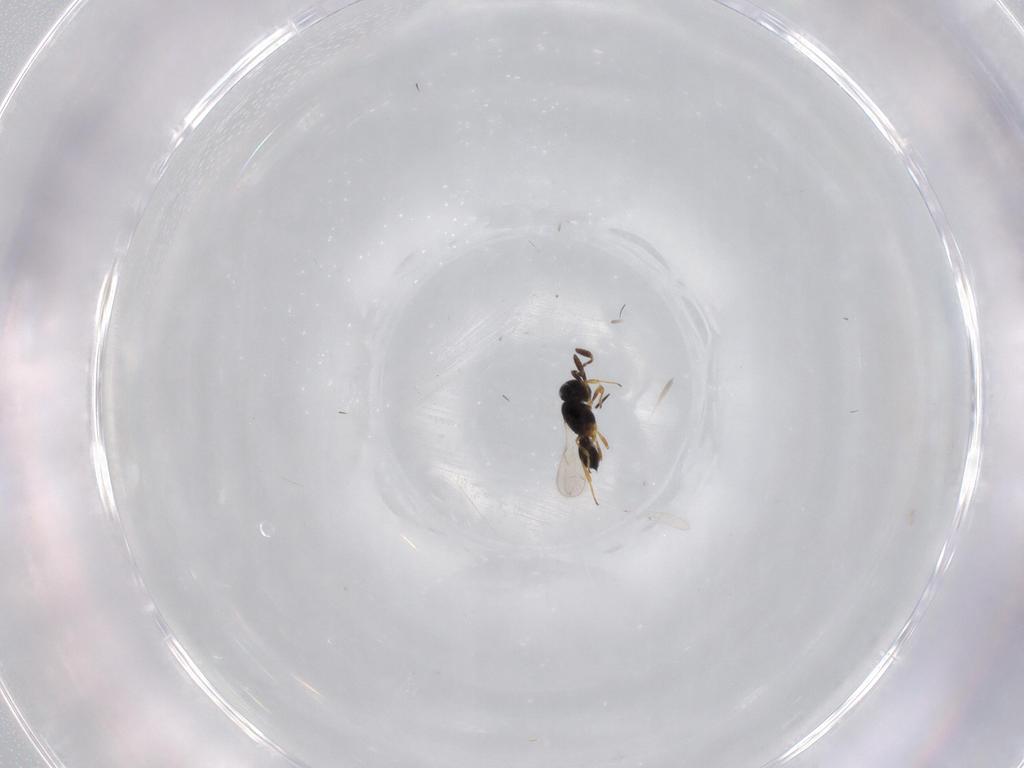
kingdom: Animalia
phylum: Arthropoda
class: Insecta
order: Hymenoptera
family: Scelionidae
